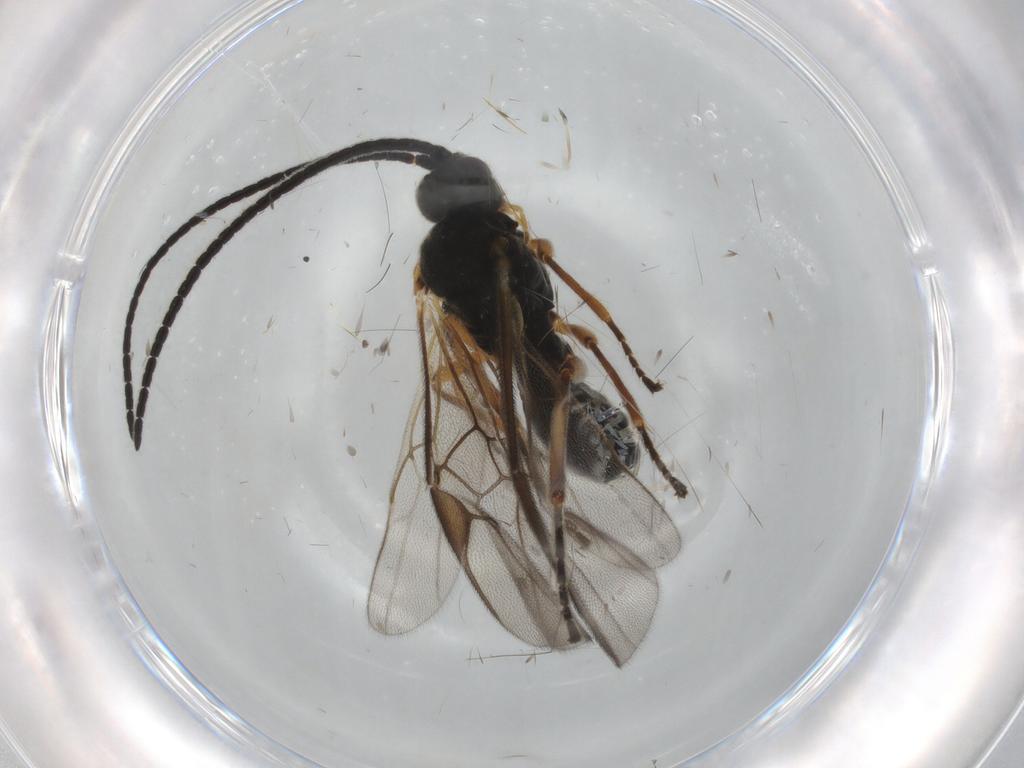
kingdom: Animalia
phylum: Arthropoda
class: Insecta
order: Hymenoptera
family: Braconidae
